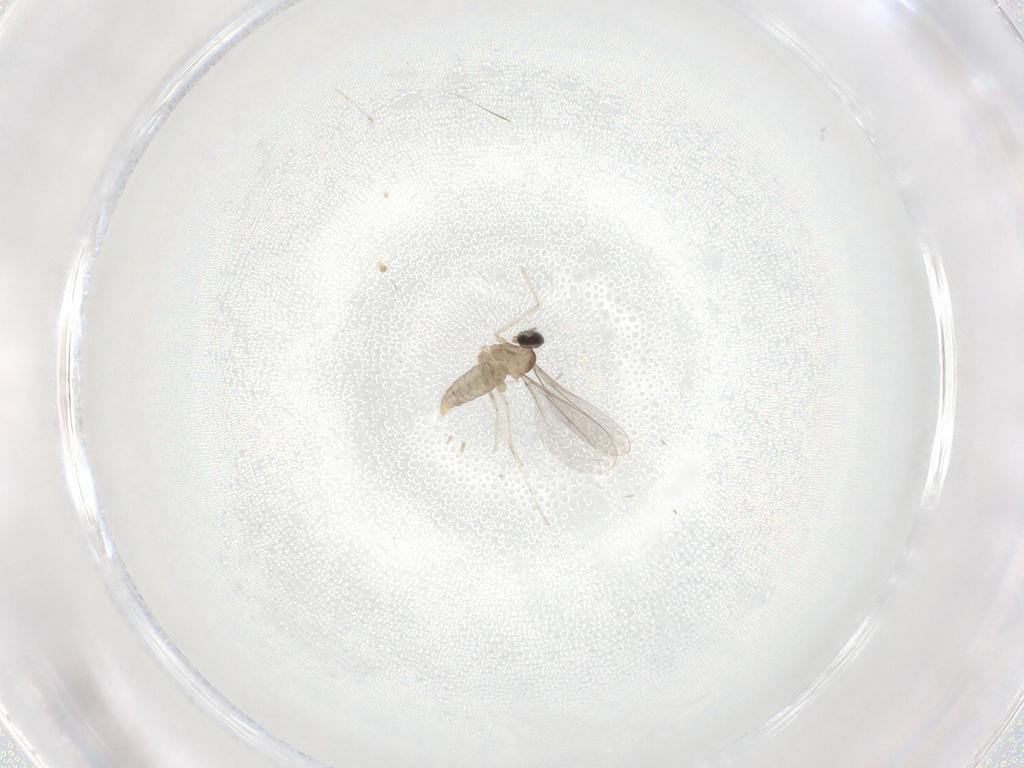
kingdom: Animalia
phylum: Arthropoda
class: Insecta
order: Diptera
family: Cecidomyiidae
